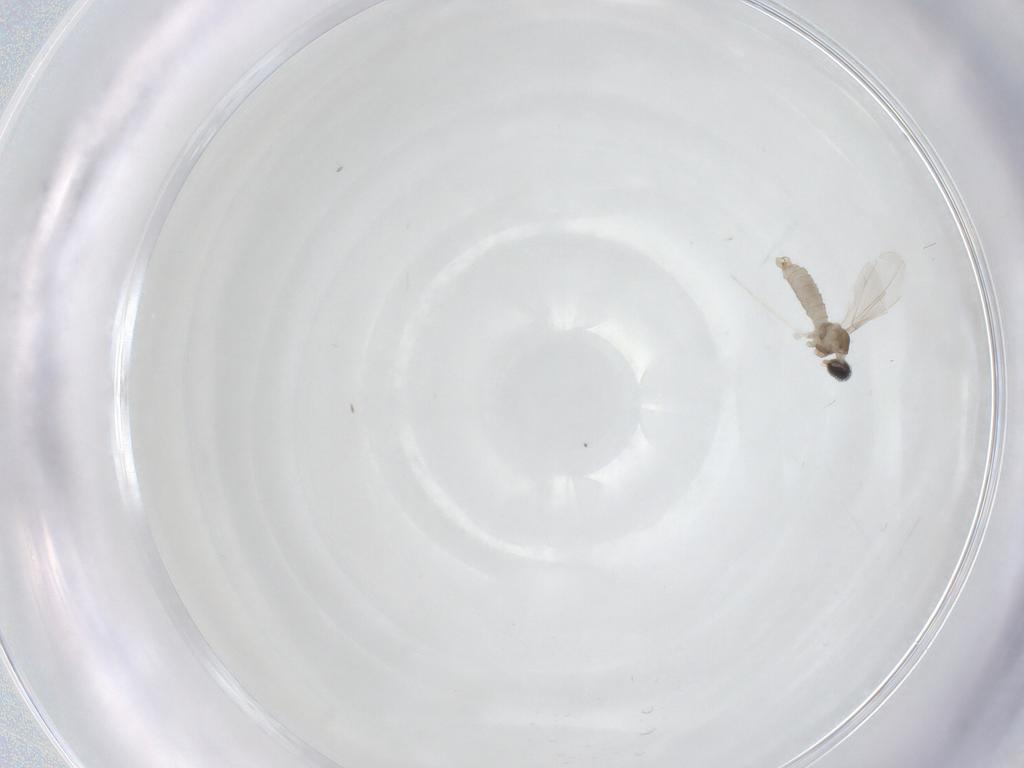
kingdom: Animalia
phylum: Arthropoda
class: Insecta
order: Diptera
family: Cecidomyiidae
